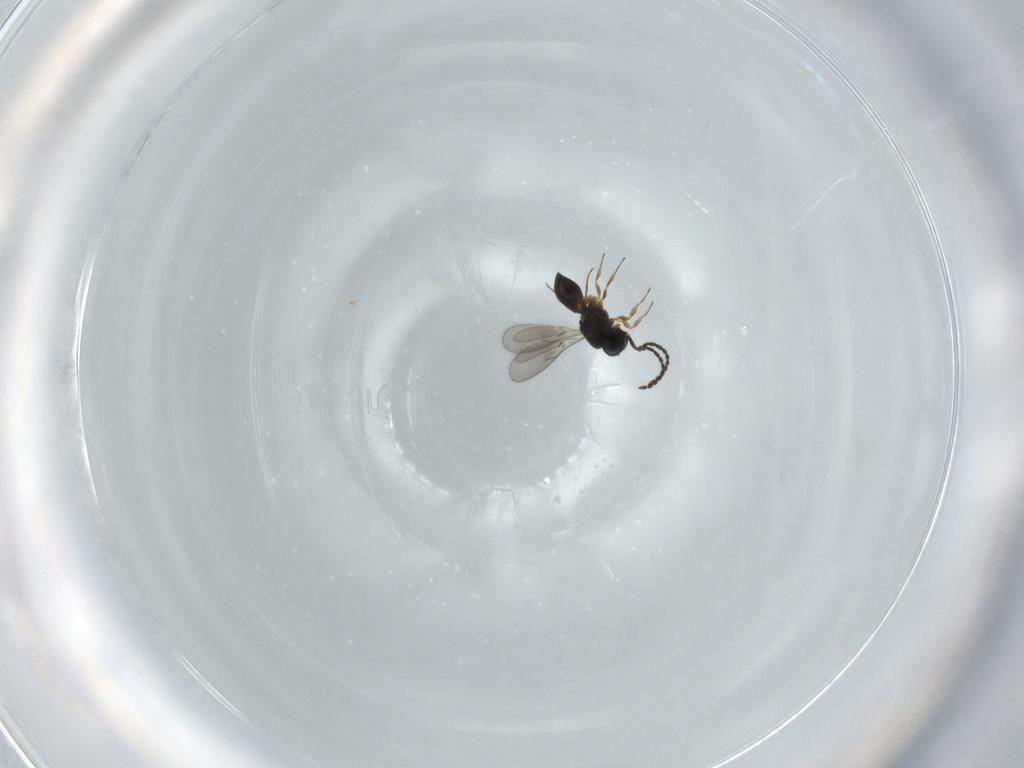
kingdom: Animalia
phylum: Arthropoda
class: Insecta
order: Hymenoptera
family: Scelionidae
